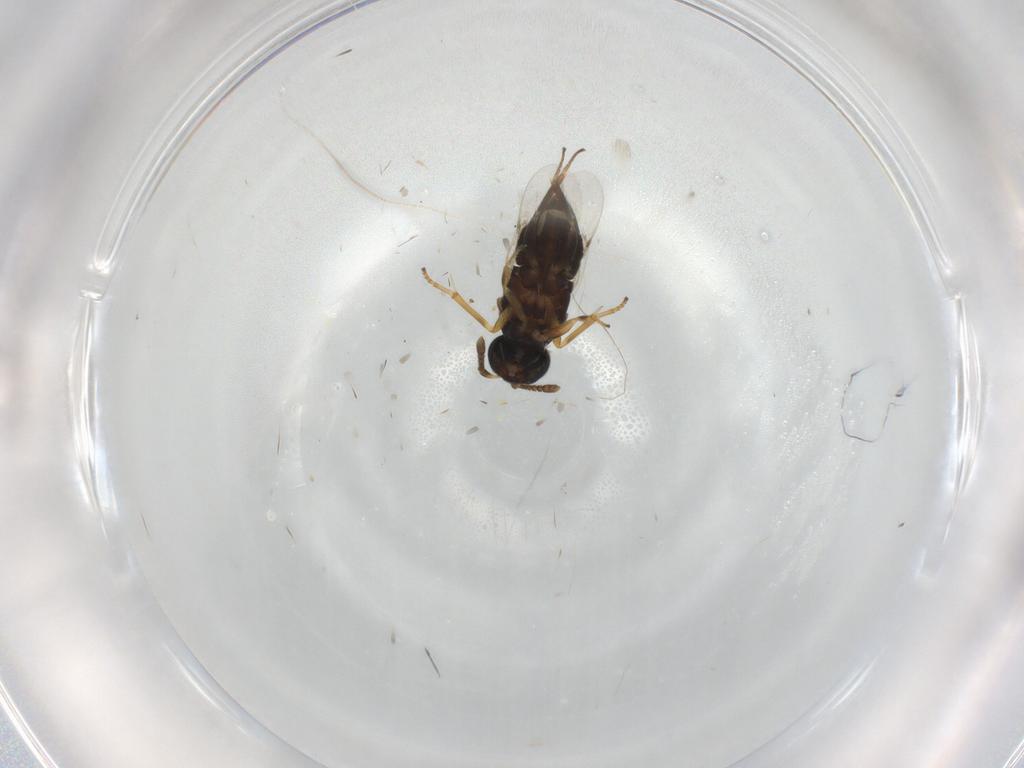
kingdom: Animalia
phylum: Arthropoda
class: Insecta
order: Hymenoptera
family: Encyrtidae
